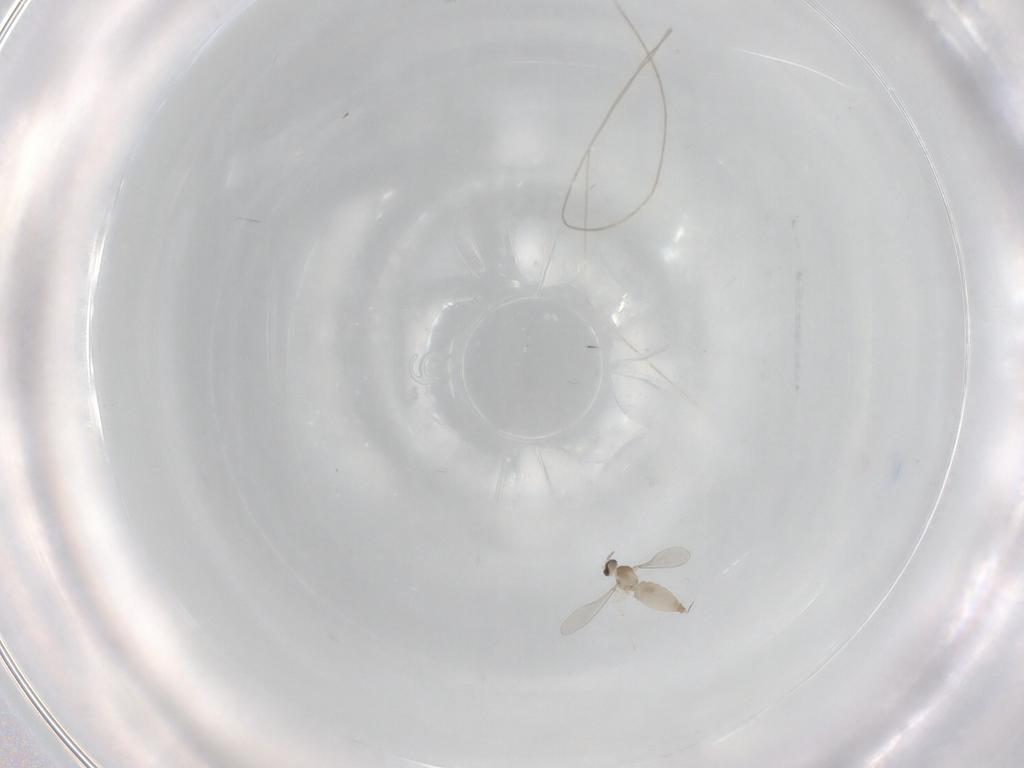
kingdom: Animalia
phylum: Arthropoda
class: Insecta
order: Diptera
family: Cecidomyiidae
